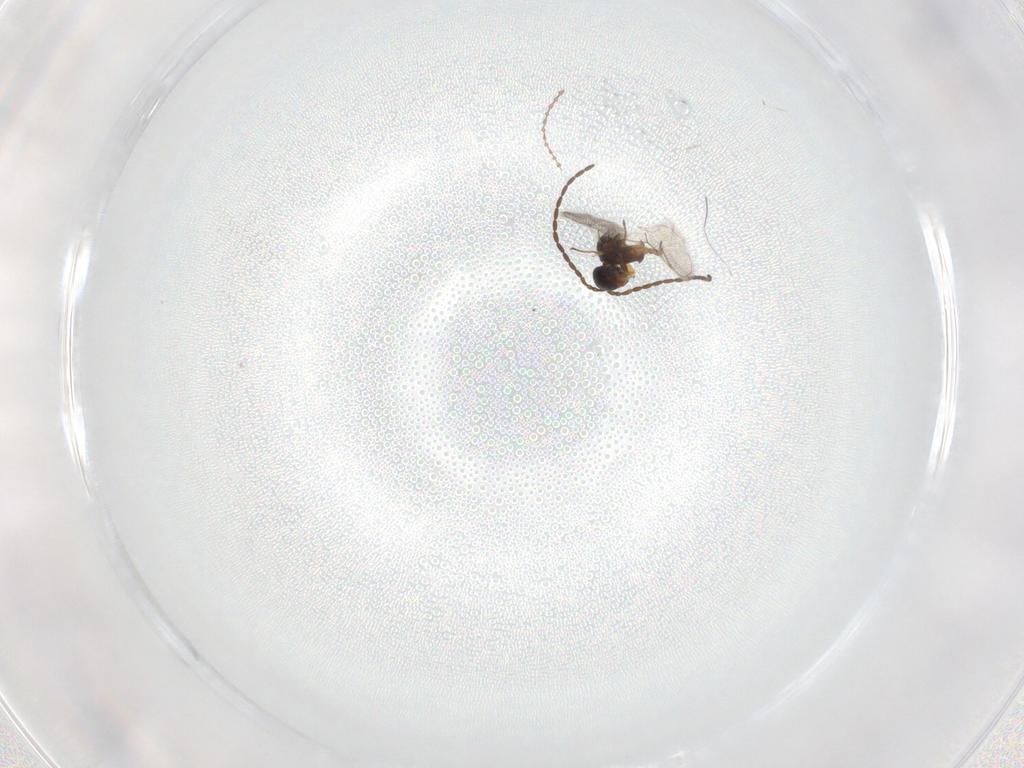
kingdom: Animalia
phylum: Arthropoda
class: Insecta
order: Hymenoptera
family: Figitidae
